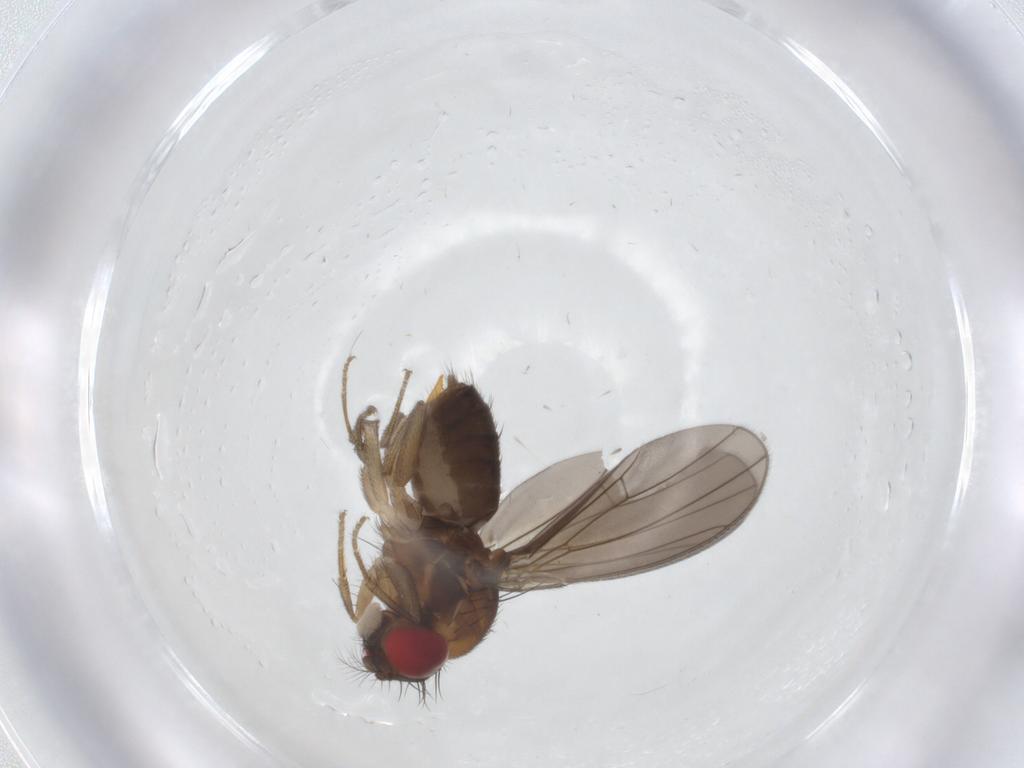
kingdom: Animalia
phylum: Arthropoda
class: Insecta
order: Diptera
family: Drosophilidae
